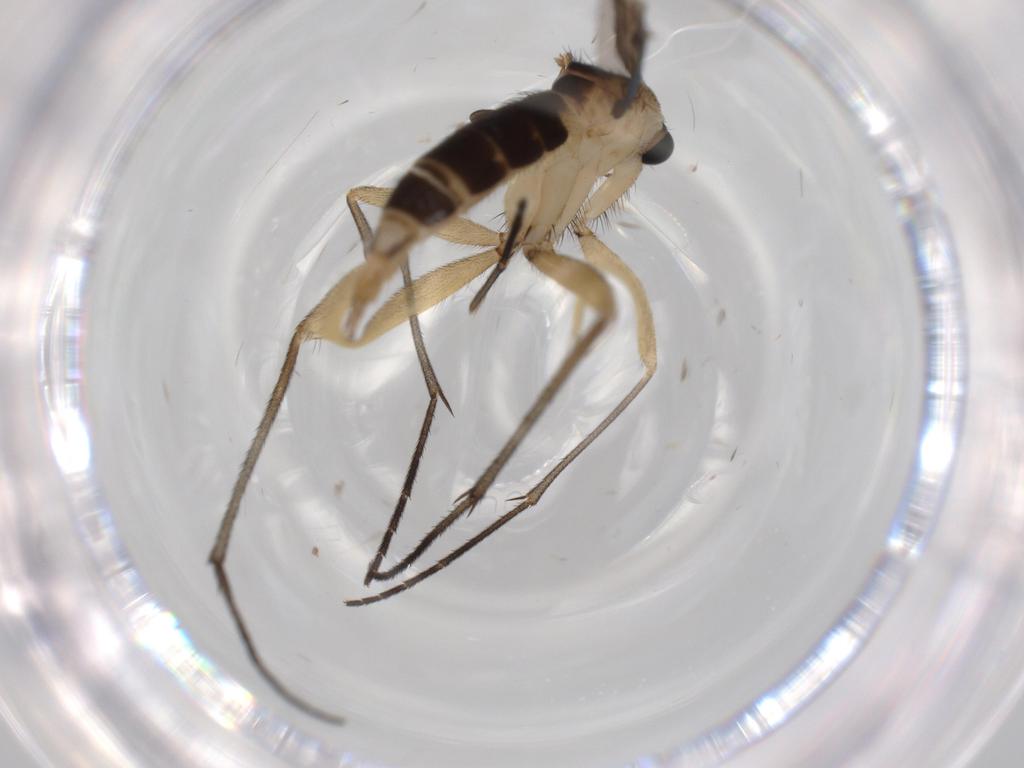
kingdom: Animalia
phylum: Arthropoda
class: Insecta
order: Diptera
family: Sciaridae
